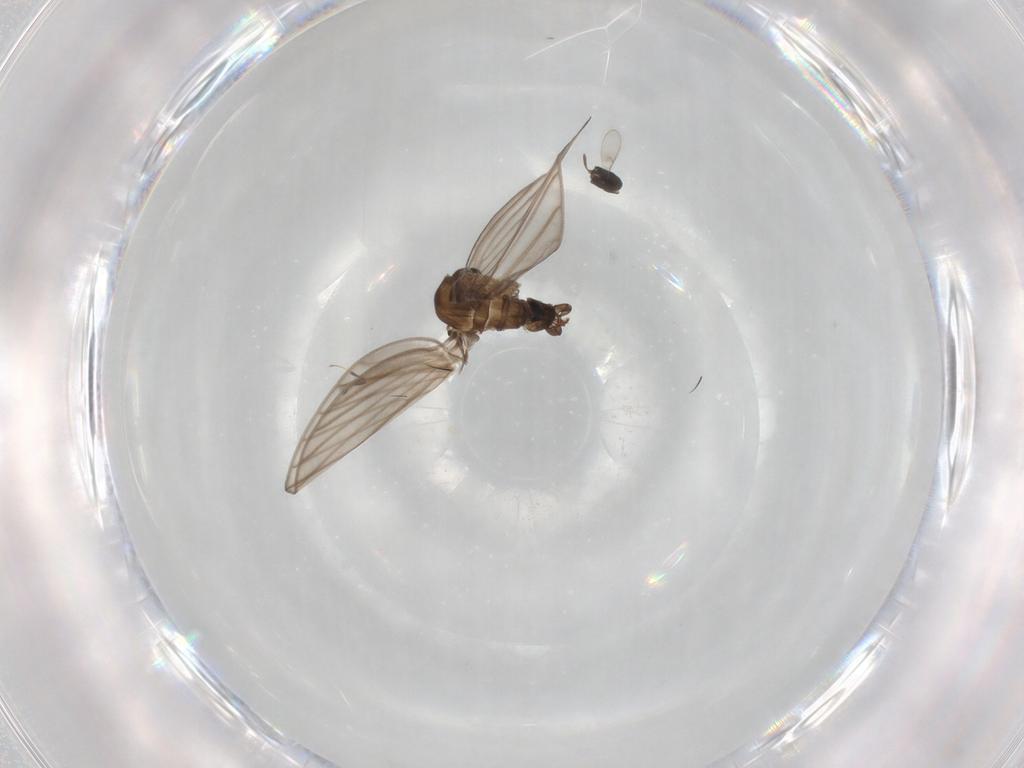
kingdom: Animalia
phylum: Arthropoda
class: Insecta
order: Diptera
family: Psychodidae
